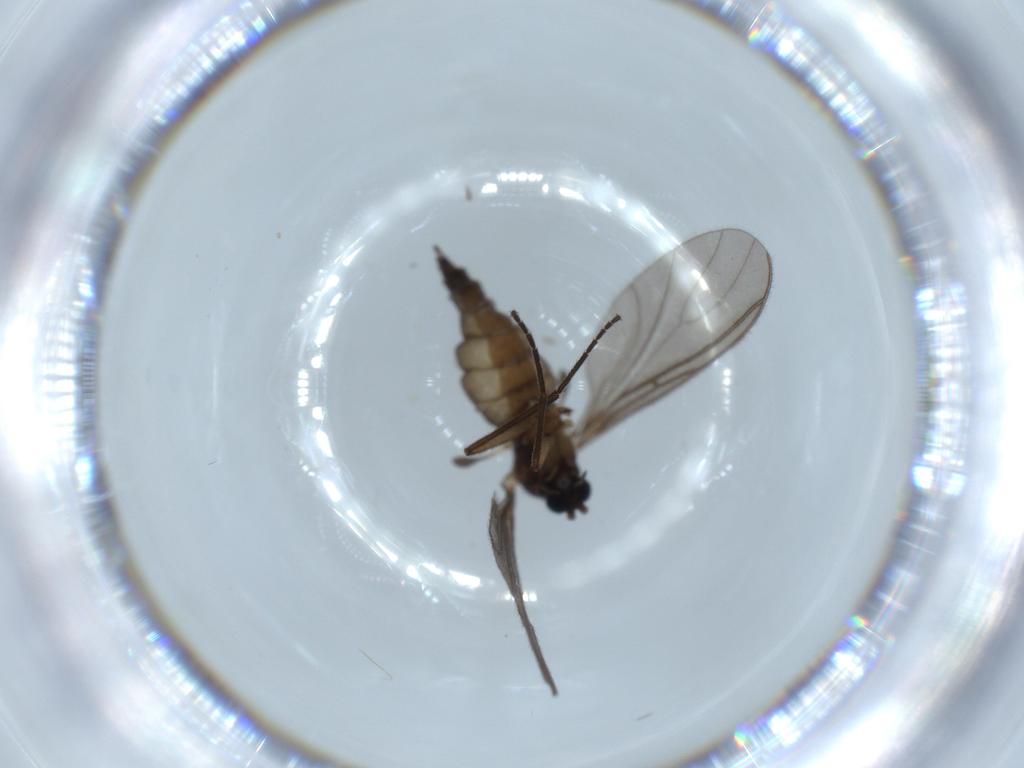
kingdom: Animalia
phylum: Arthropoda
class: Insecta
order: Diptera
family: Sciaridae
